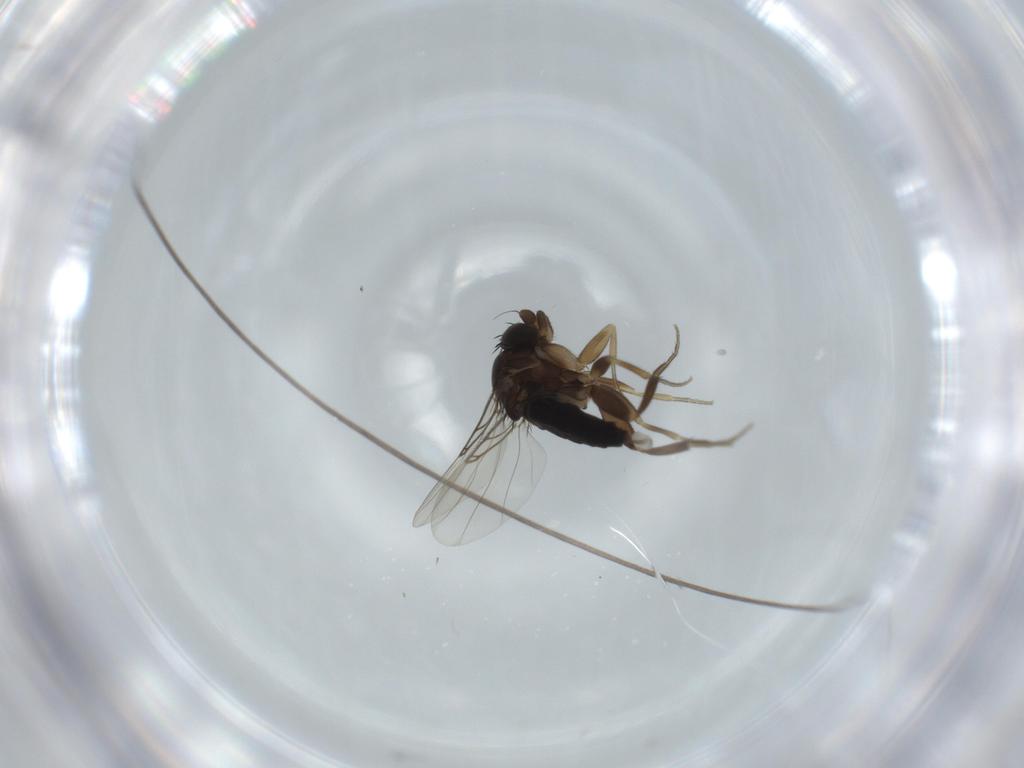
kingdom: Animalia
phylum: Arthropoda
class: Insecta
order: Diptera
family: Phoridae
